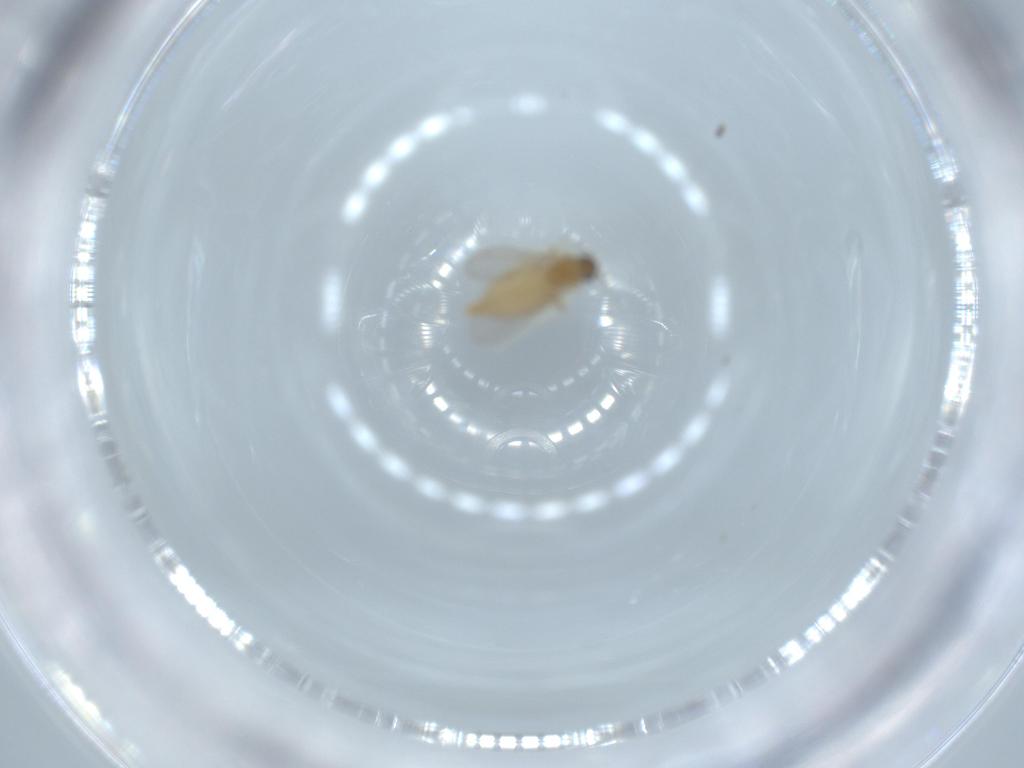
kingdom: Animalia
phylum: Arthropoda
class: Insecta
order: Diptera
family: Cecidomyiidae
